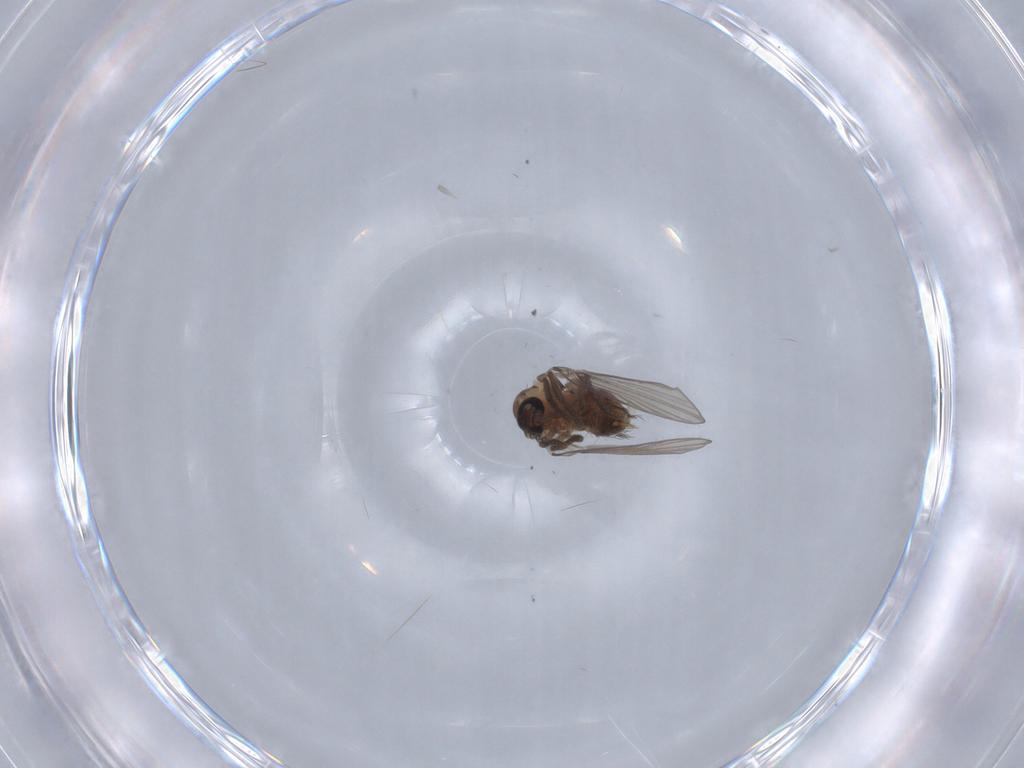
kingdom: Animalia
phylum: Arthropoda
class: Insecta
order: Diptera
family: Psychodidae
